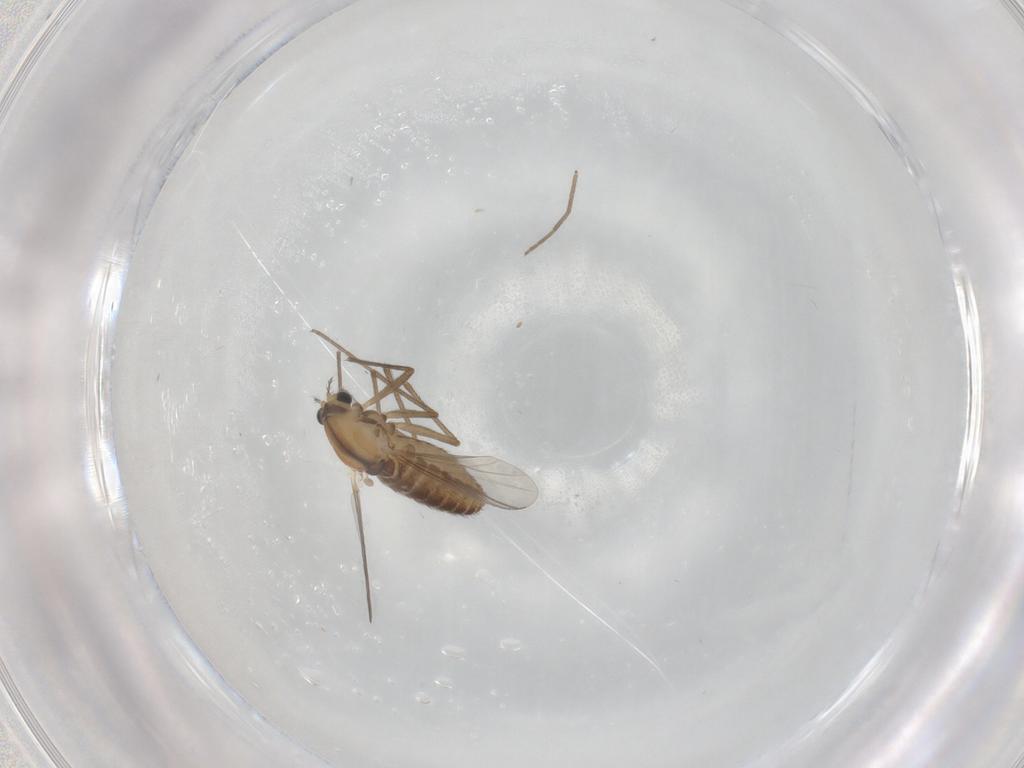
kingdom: Animalia
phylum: Arthropoda
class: Insecta
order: Diptera
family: Chironomidae
